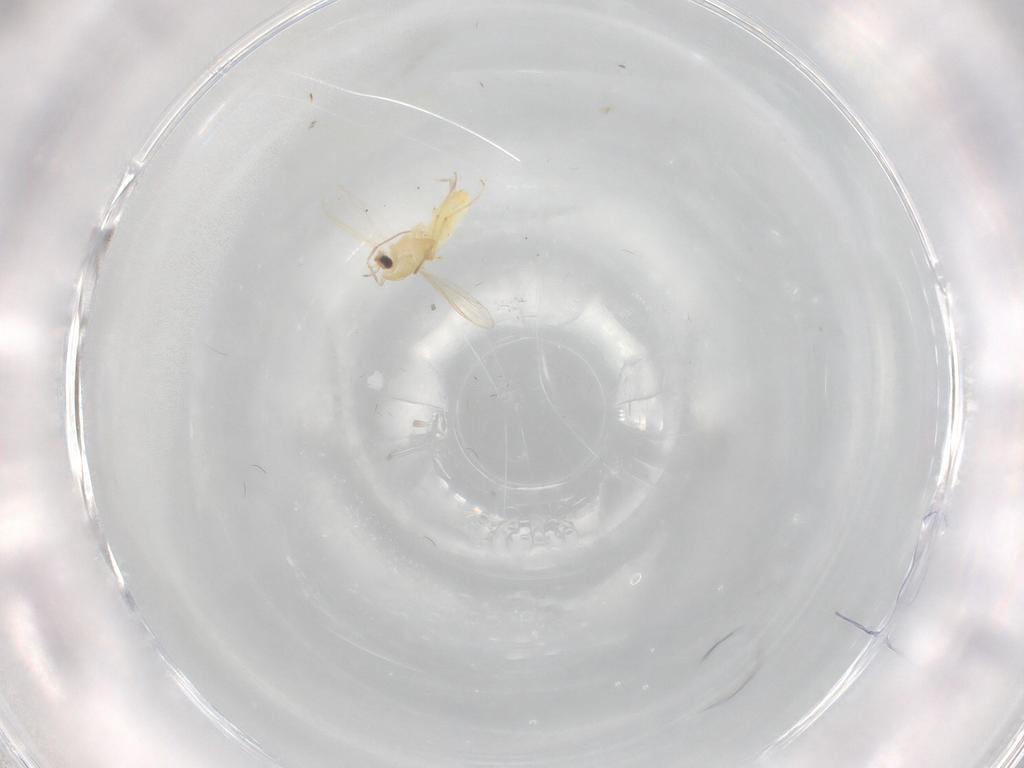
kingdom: Animalia
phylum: Arthropoda
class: Insecta
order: Diptera
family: Chironomidae
